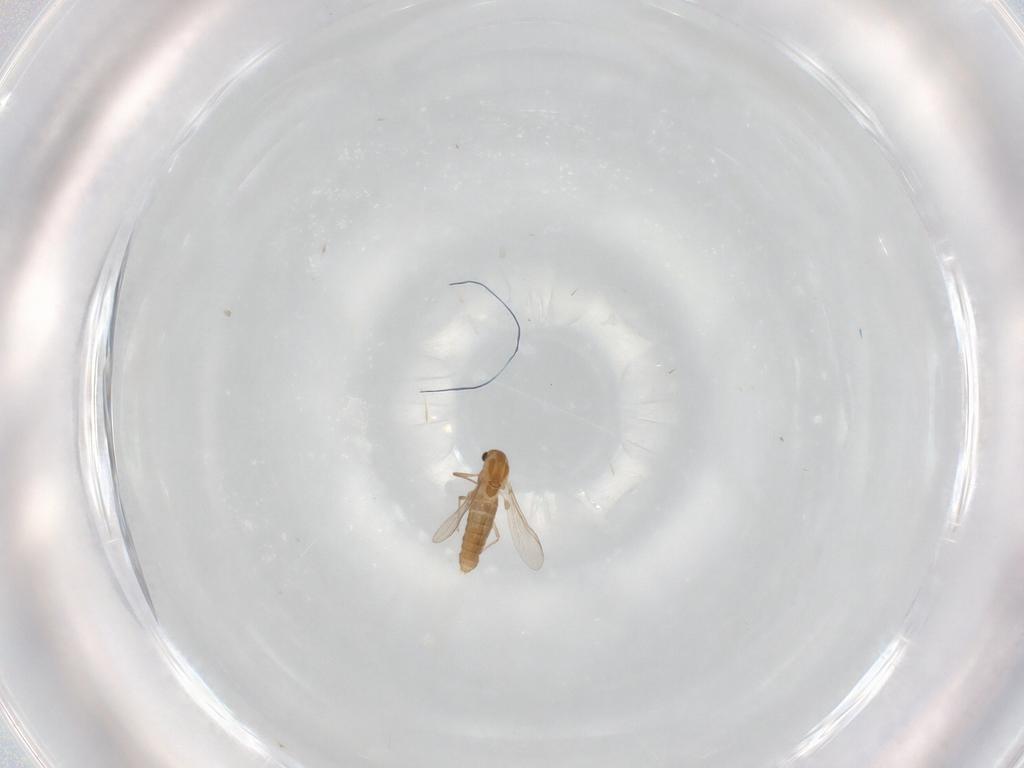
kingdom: Animalia
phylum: Arthropoda
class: Insecta
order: Diptera
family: Chironomidae
